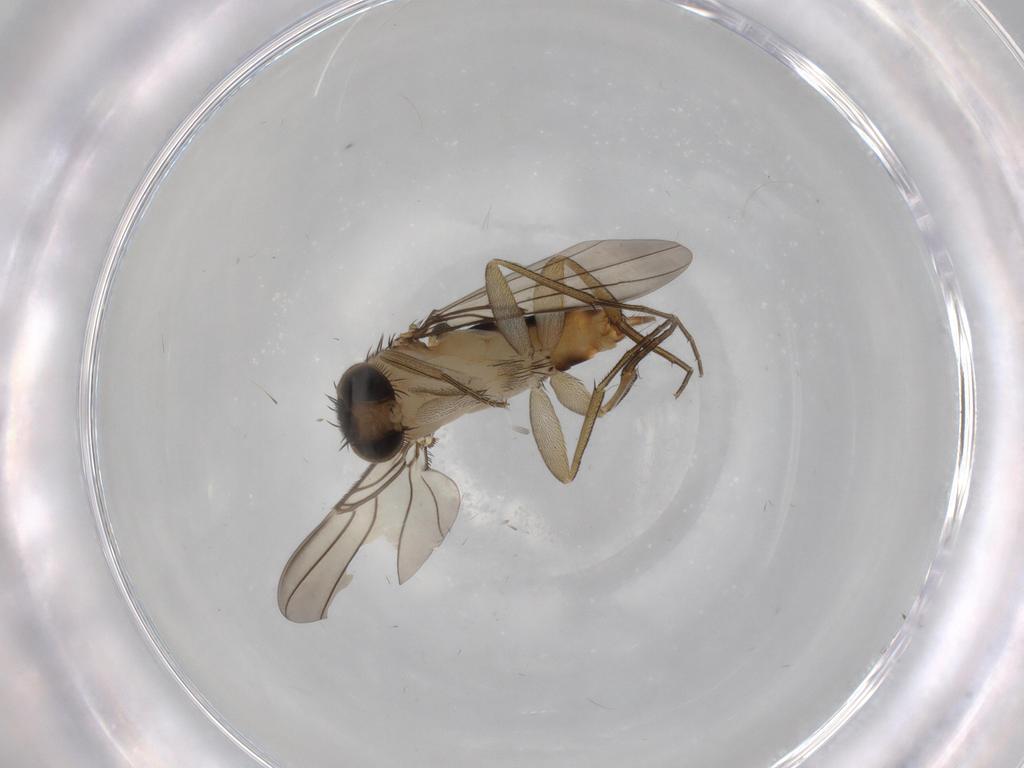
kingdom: Animalia
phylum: Arthropoda
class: Insecta
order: Diptera
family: Phoridae
